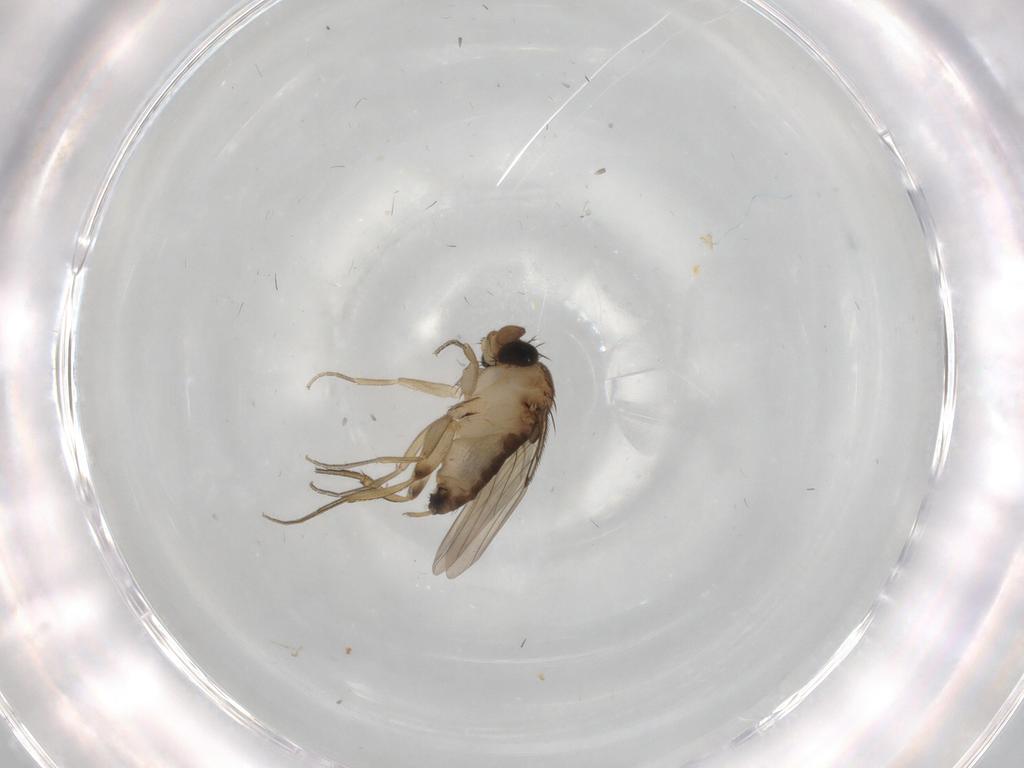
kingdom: Animalia
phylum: Arthropoda
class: Insecta
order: Diptera
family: Phoridae
